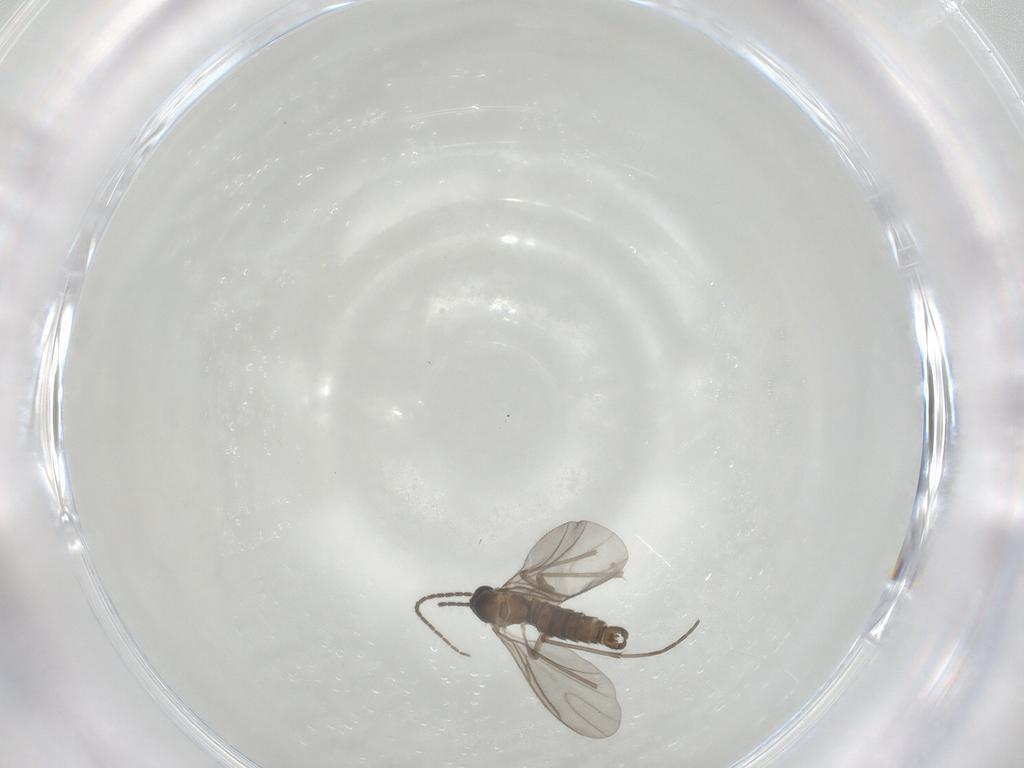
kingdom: Animalia
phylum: Arthropoda
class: Insecta
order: Diptera
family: Sciaridae
